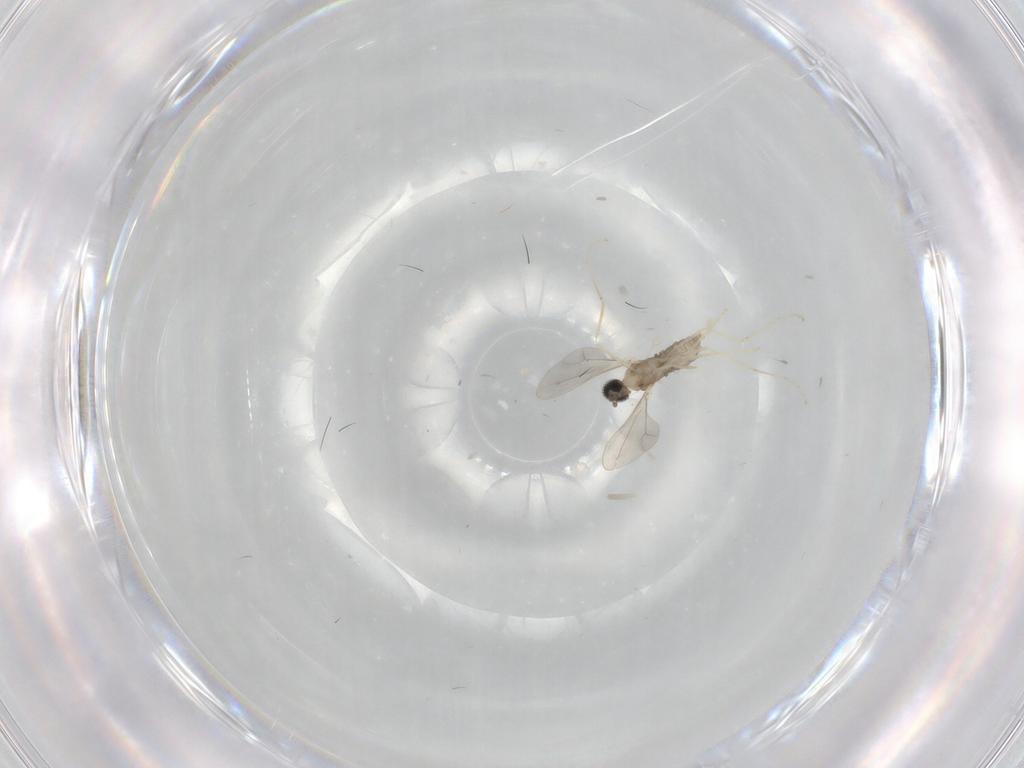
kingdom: Animalia
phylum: Arthropoda
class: Insecta
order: Diptera
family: Cecidomyiidae
